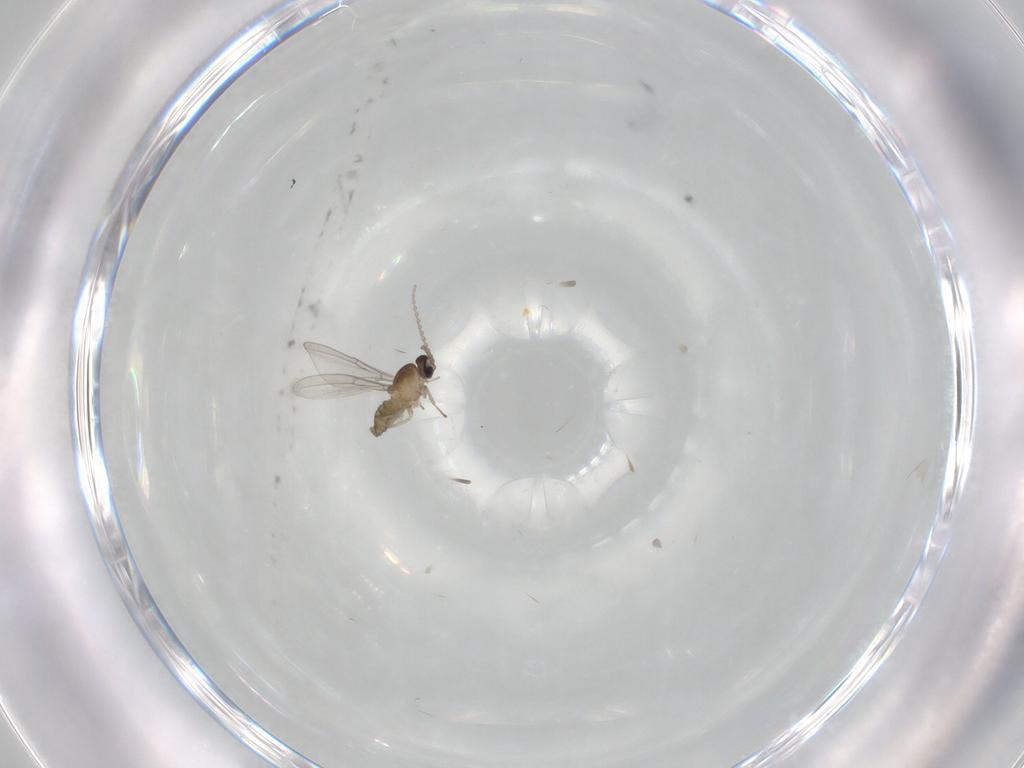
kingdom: Animalia
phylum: Arthropoda
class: Insecta
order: Diptera
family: Cecidomyiidae
